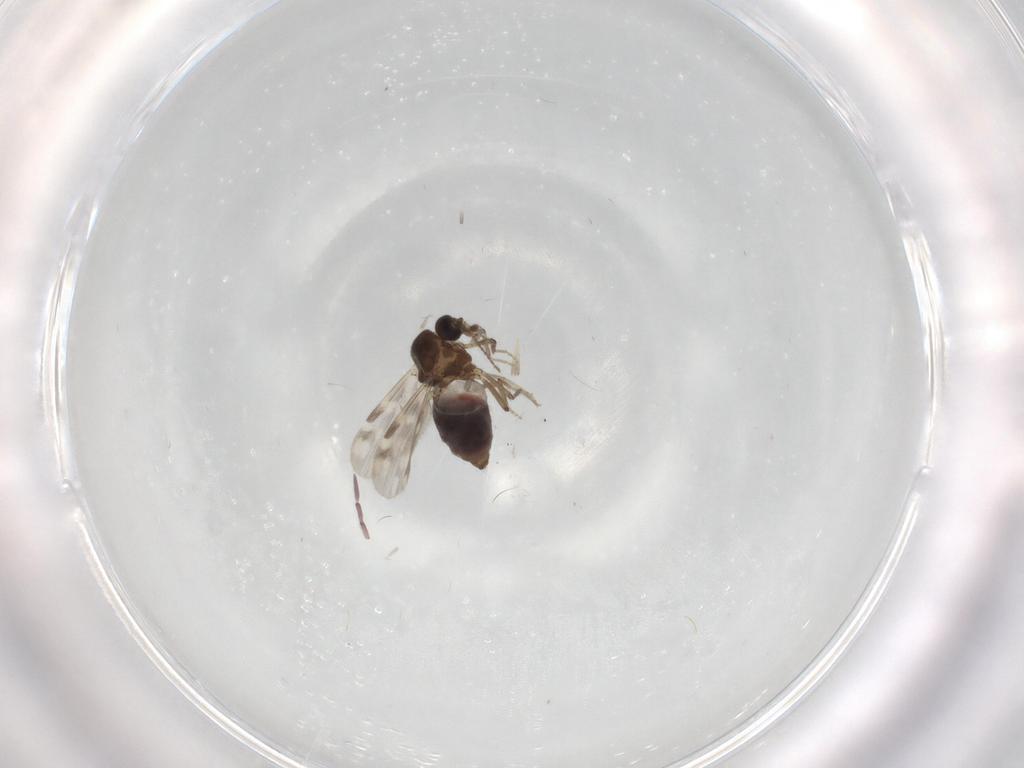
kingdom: Animalia
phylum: Arthropoda
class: Insecta
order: Diptera
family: Ceratopogonidae
